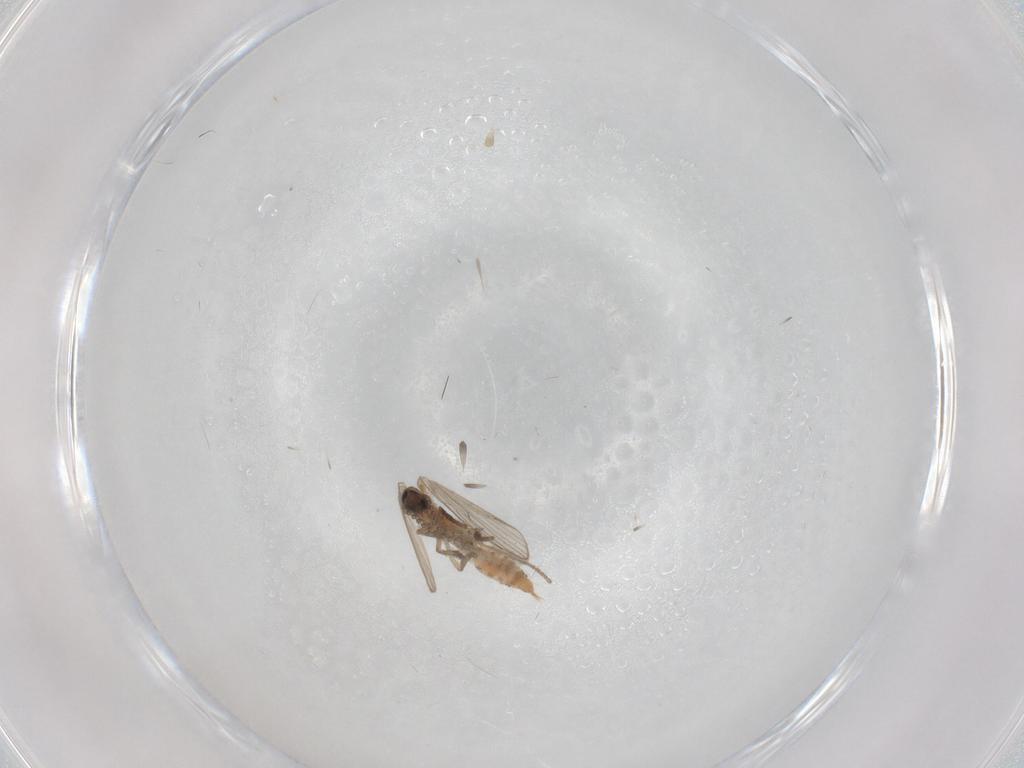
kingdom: Animalia
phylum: Arthropoda
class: Insecta
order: Diptera
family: Psychodidae
